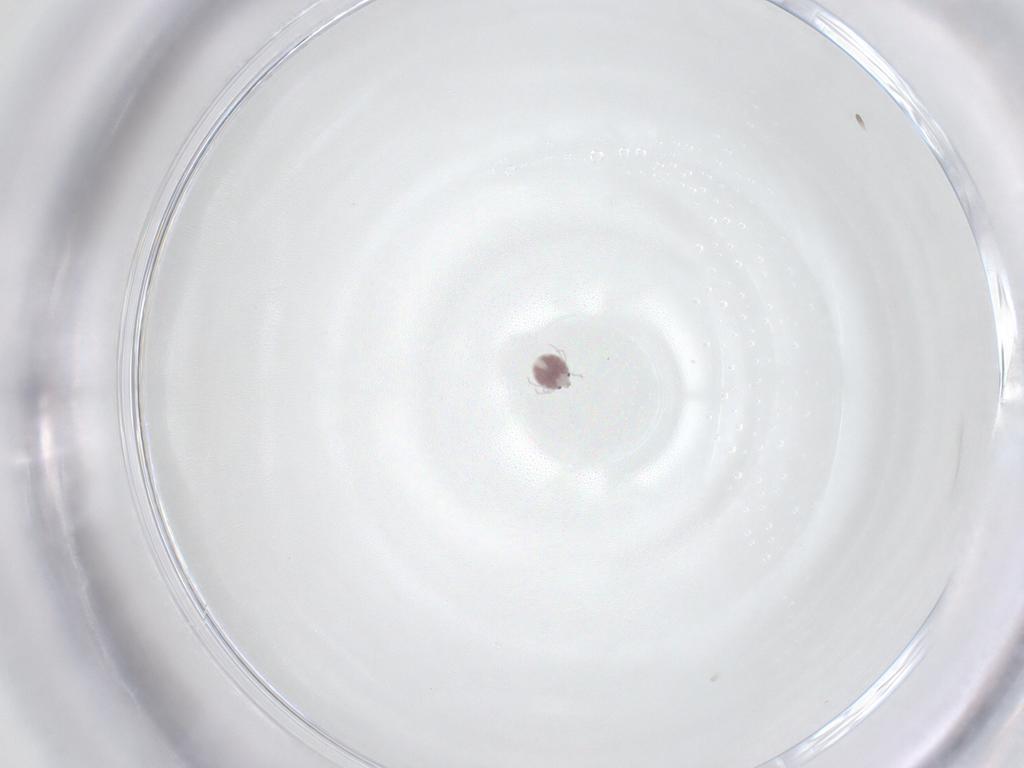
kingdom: Animalia
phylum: Arthropoda
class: Arachnida
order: Trombidiformes
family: Pionidae
